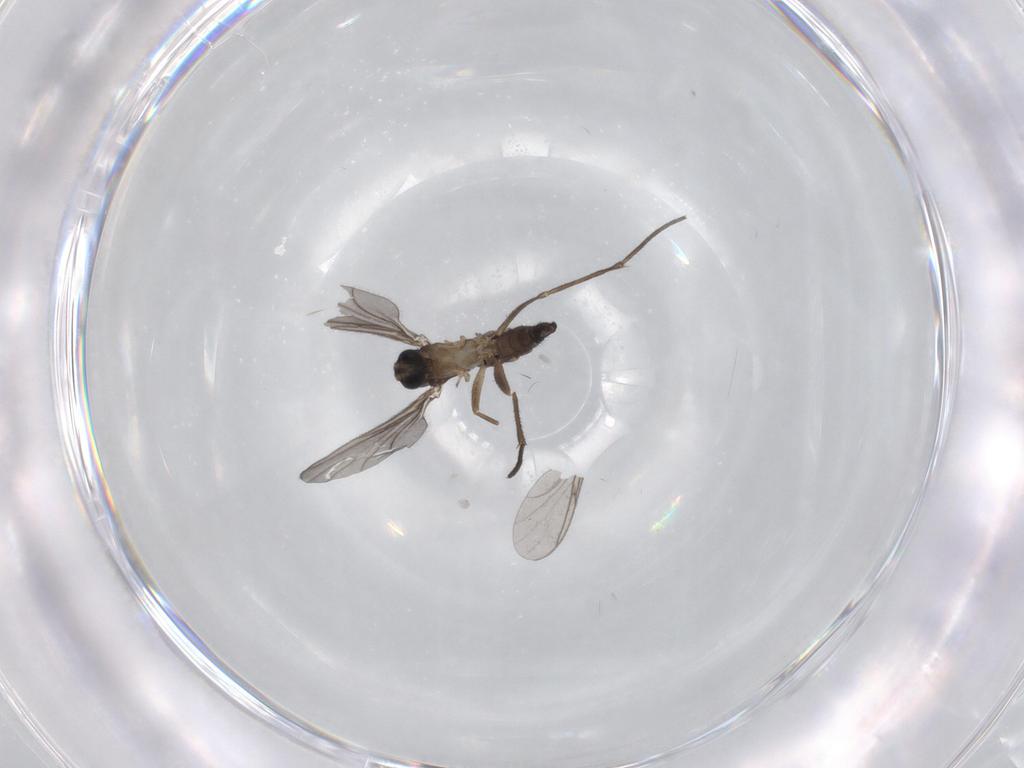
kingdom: Animalia
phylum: Arthropoda
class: Insecta
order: Diptera
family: Sciaridae
